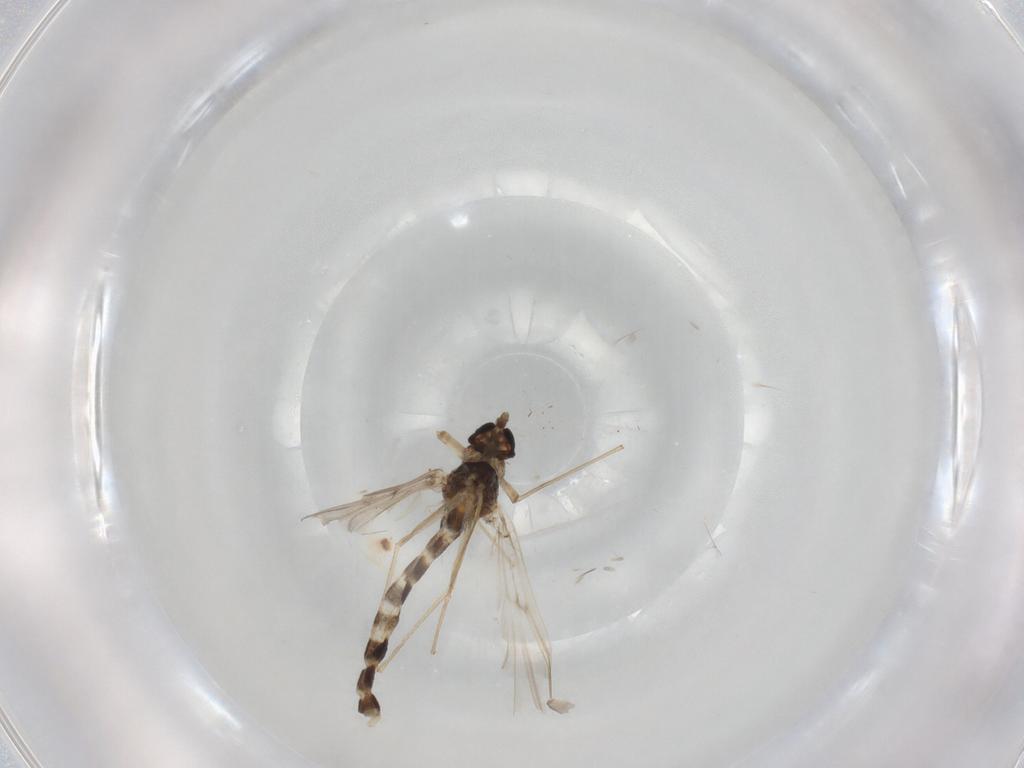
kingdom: Animalia
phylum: Arthropoda
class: Insecta
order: Diptera
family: Chironomidae
